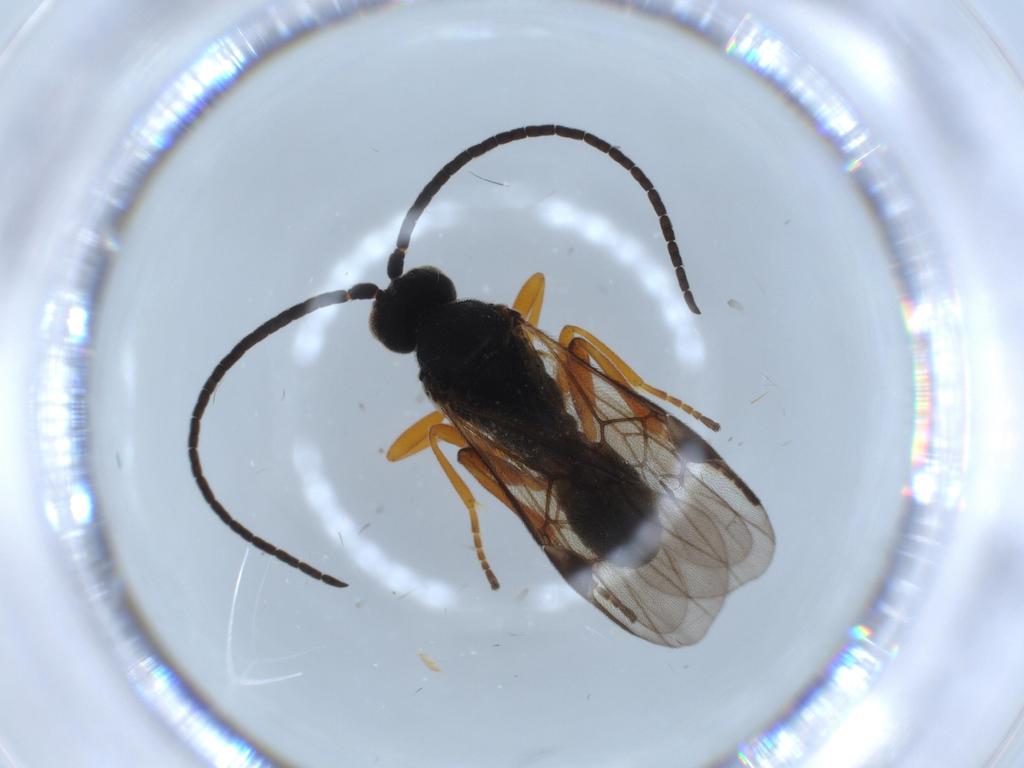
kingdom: Animalia
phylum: Arthropoda
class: Insecta
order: Hymenoptera
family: Braconidae
